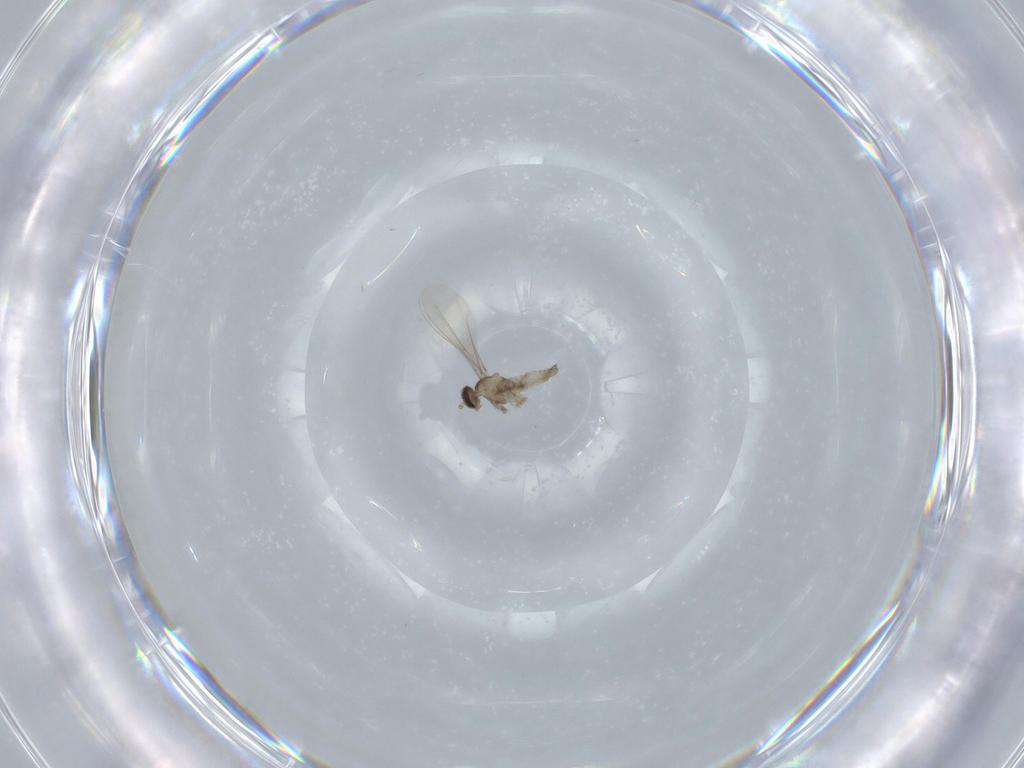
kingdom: Animalia
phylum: Arthropoda
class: Insecta
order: Diptera
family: Cecidomyiidae
